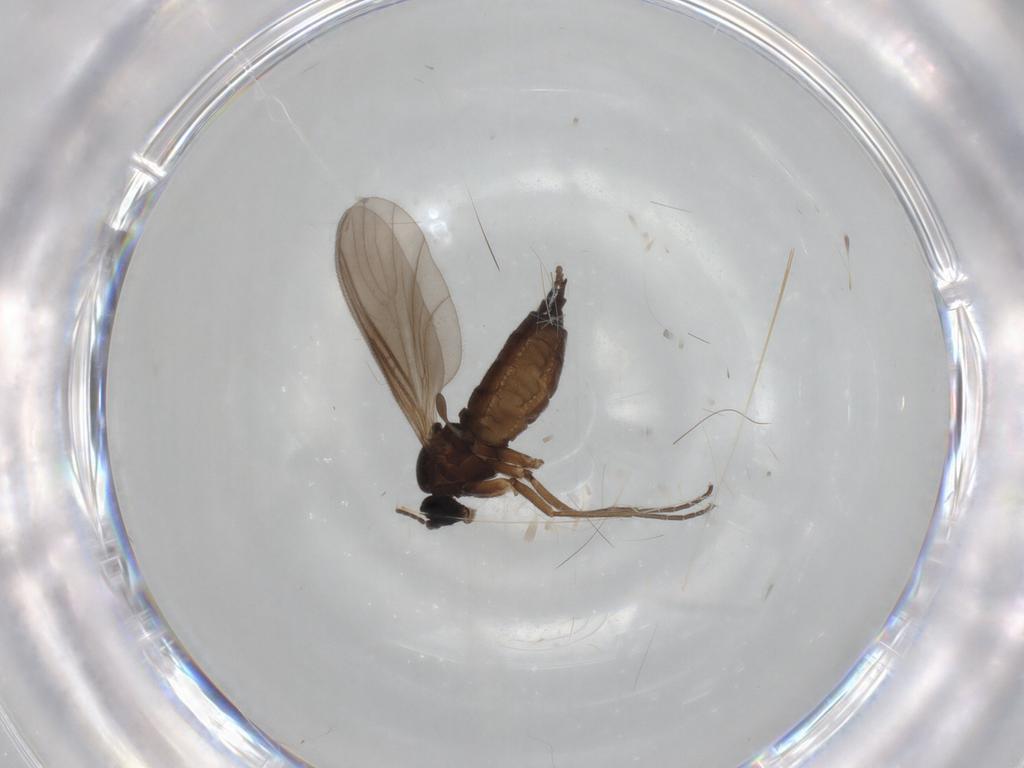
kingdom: Animalia
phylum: Arthropoda
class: Insecta
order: Diptera
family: Sciaridae
